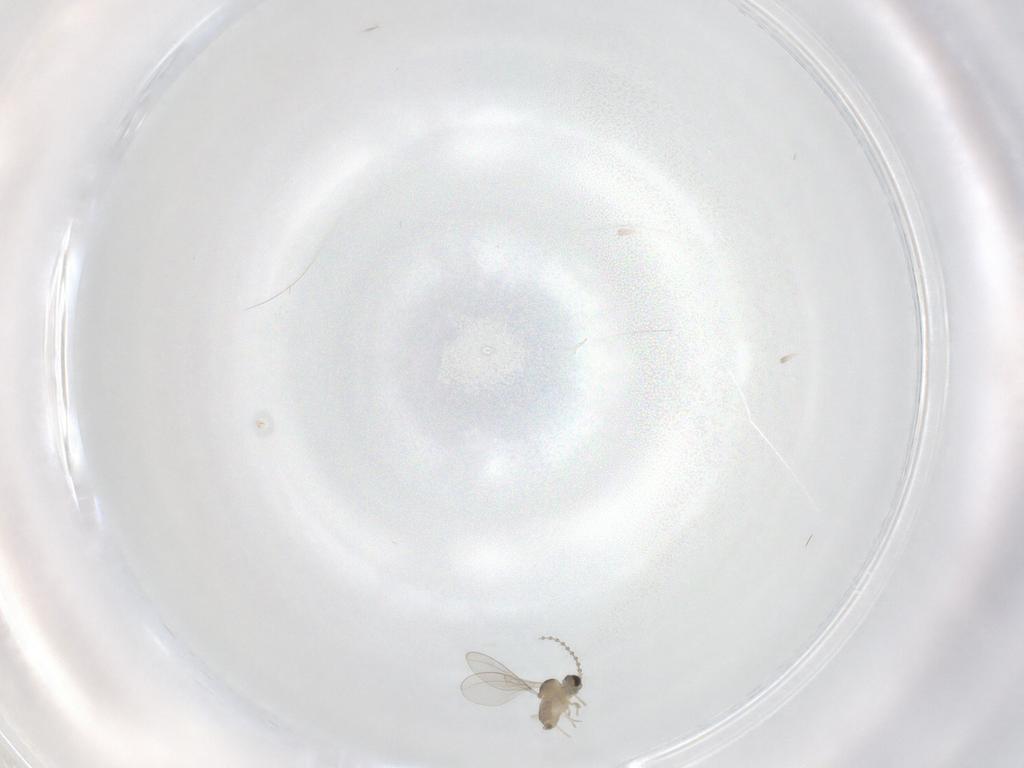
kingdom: Animalia
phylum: Arthropoda
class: Insecta
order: Diptera
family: Cecidomyiidae
